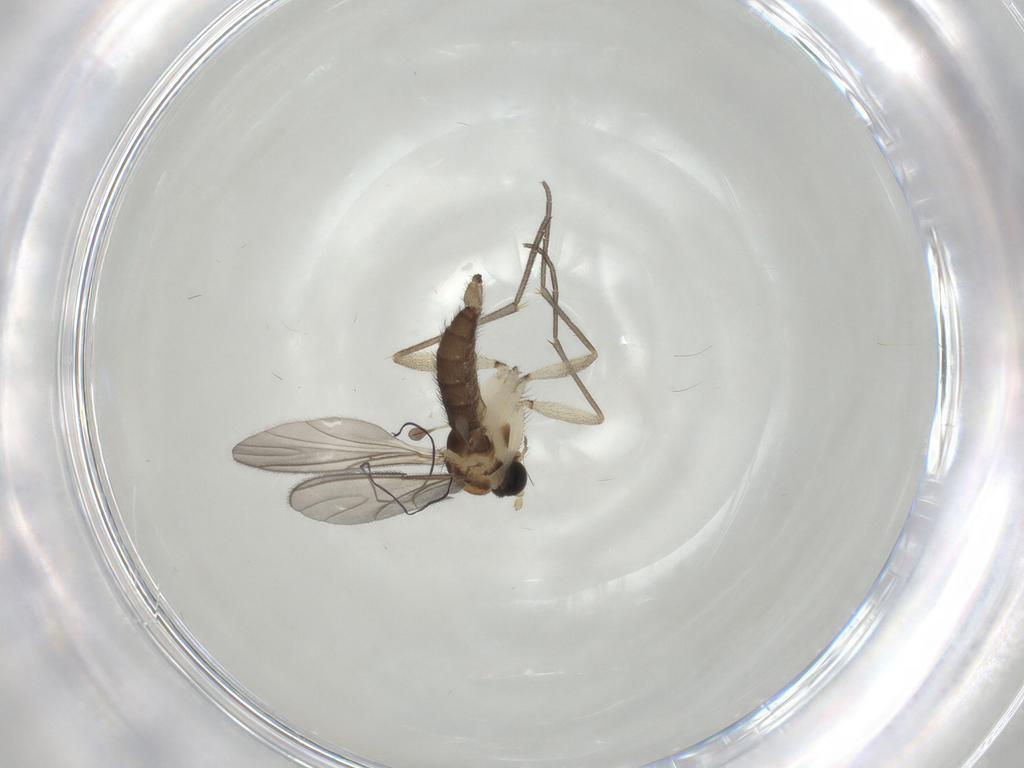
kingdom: Animalia
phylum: Arthropoda
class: Insecta
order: Diptera
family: Sciaridae
